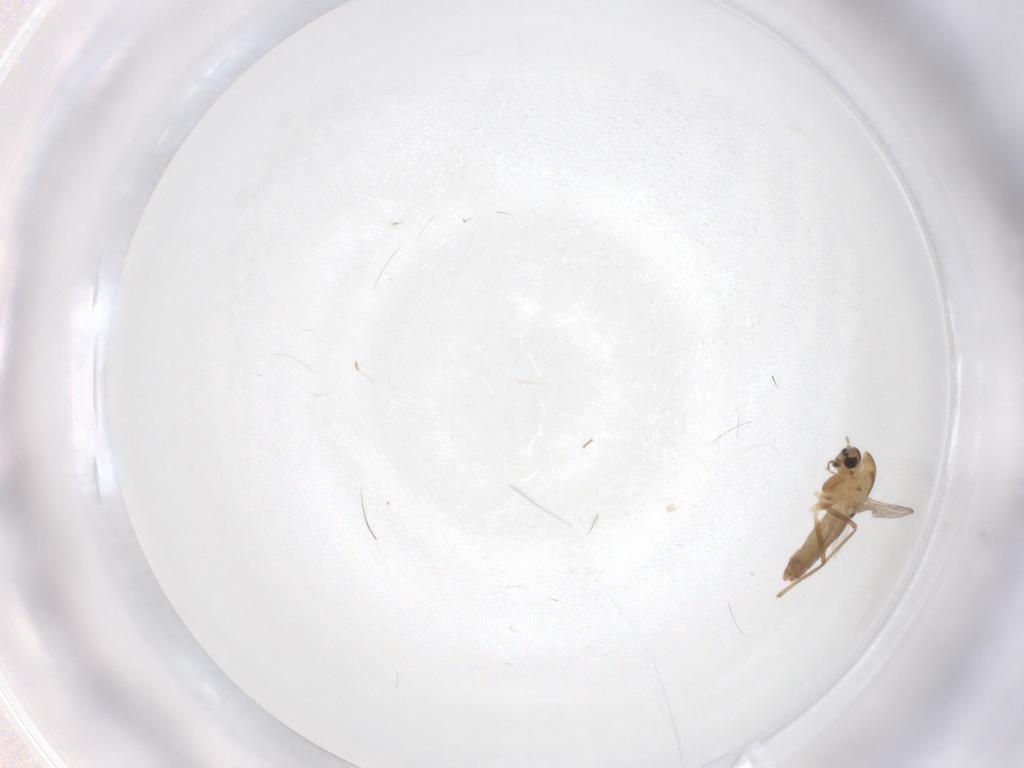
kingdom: Animalia
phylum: Arthropoda
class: Insecta
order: Diptera
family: Chironomidae
